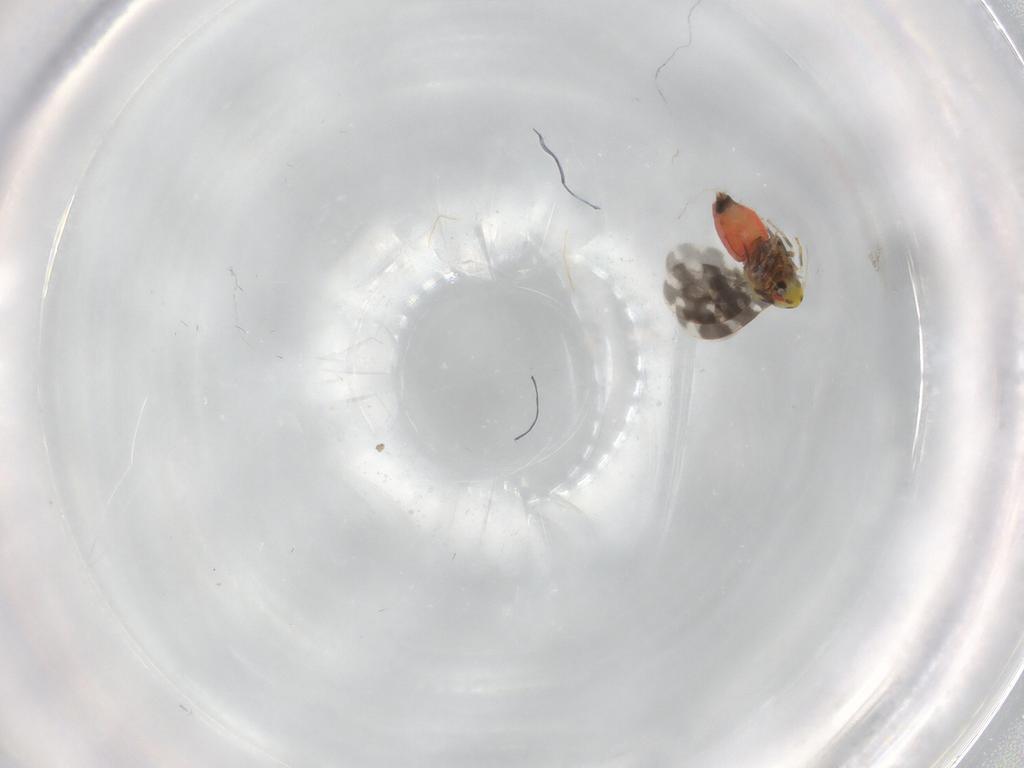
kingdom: Animalia
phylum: Arthropoda
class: Insecta
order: Hemiptera
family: Aleyrodidae
